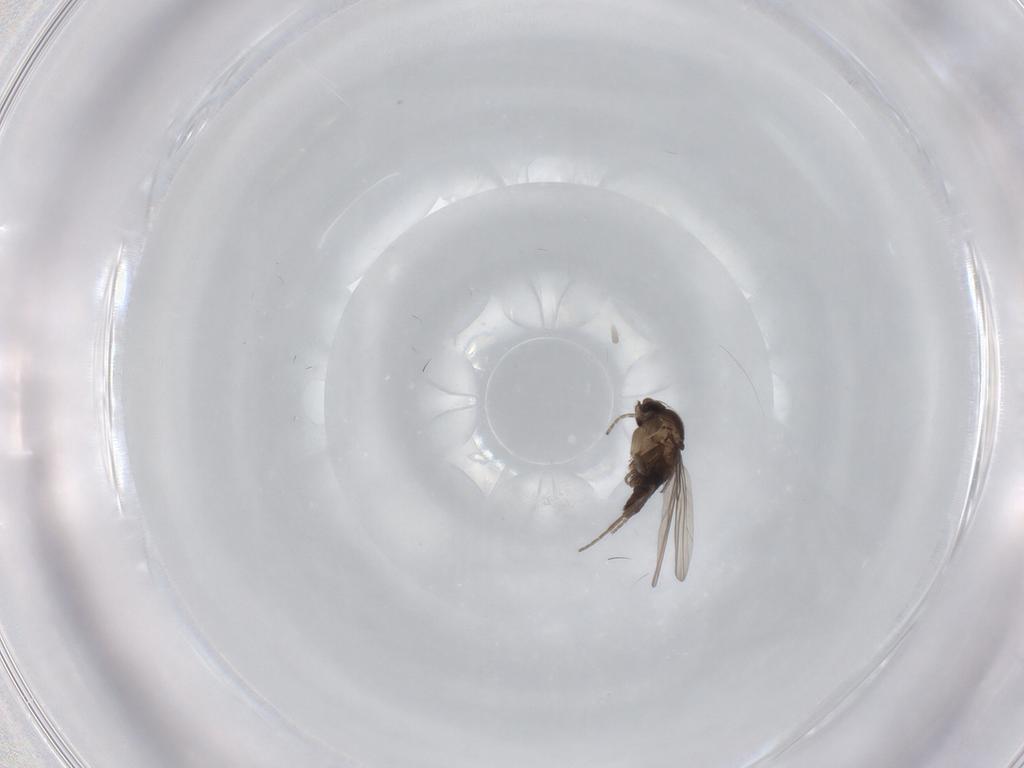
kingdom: Animalia
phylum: Arthropoda
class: Insecta
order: Diptera
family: Phoridae
